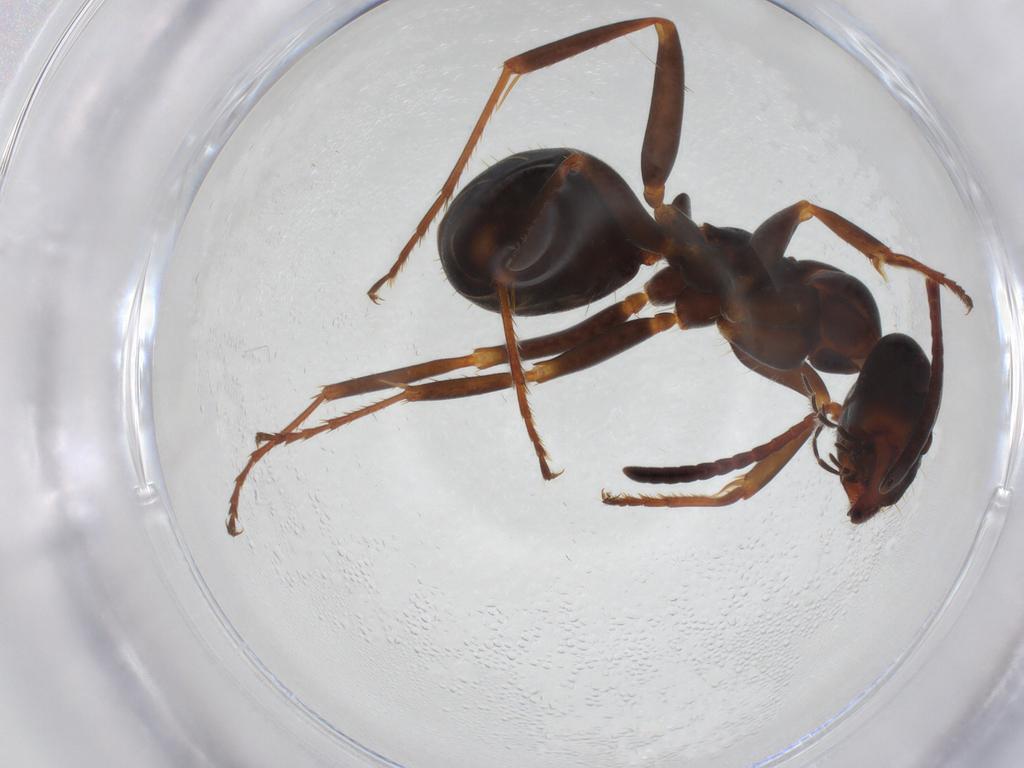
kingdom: Animalia
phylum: Arthropoda
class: Insecta
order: Hymenoptera
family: Formicidae
